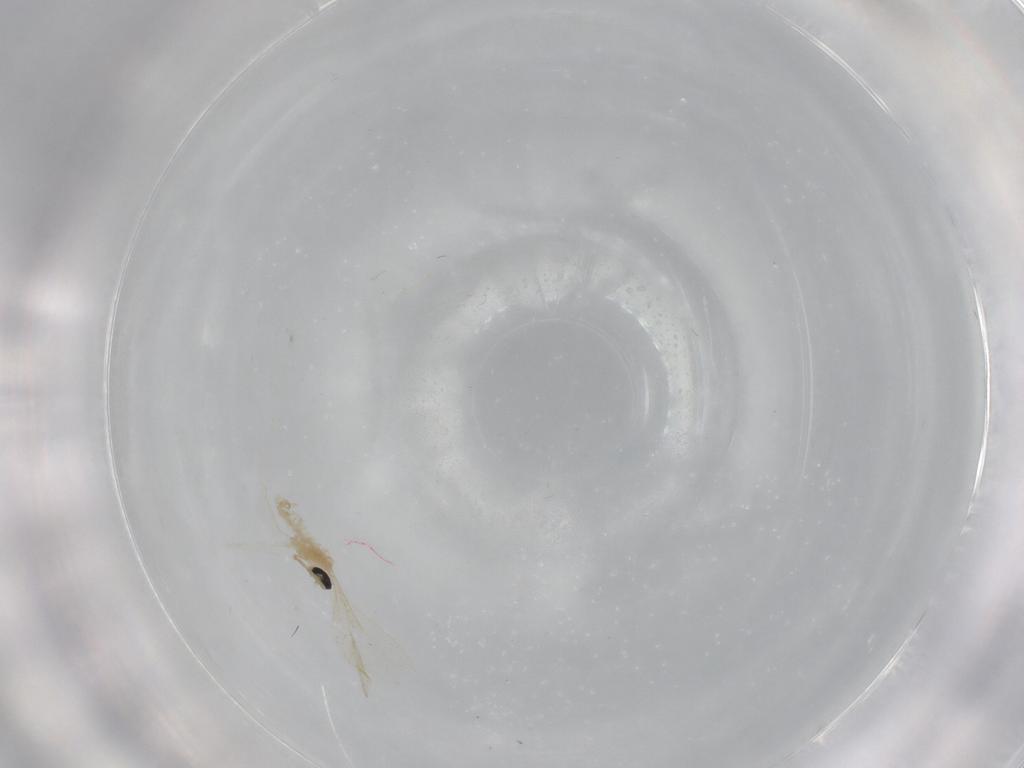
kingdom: Animalia
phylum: Arthropoda
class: Insecta
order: Diptera
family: Cecidomyiidae
